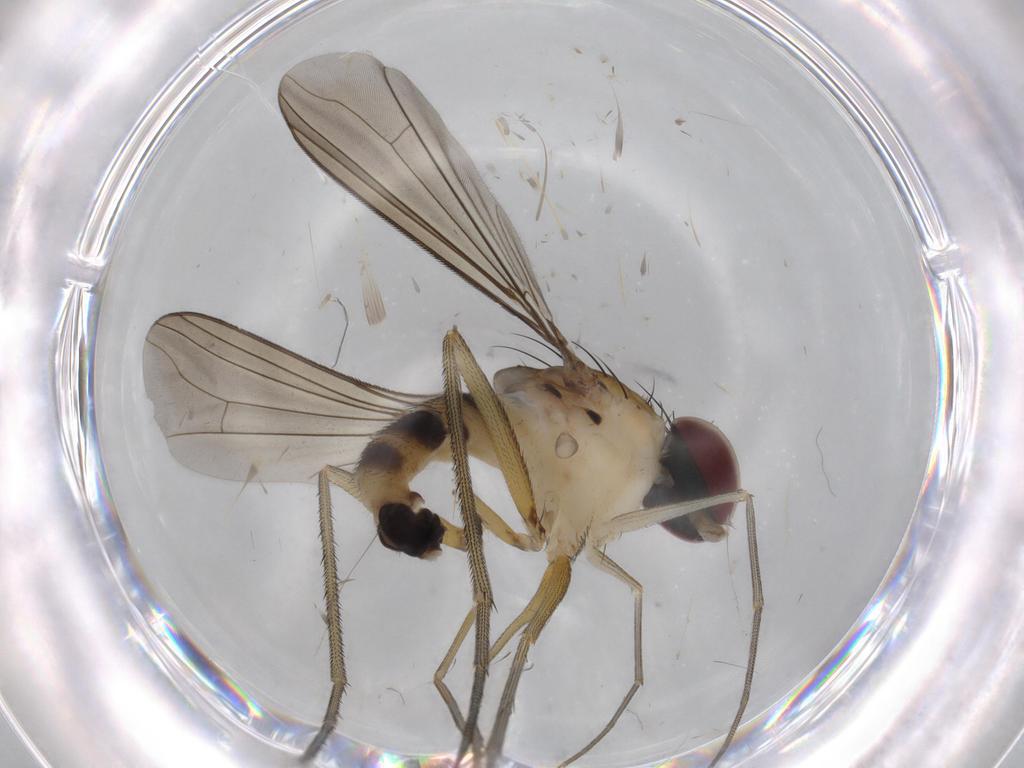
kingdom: Animalia
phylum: Arthropoda
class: Insecta
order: Diptera
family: Dolichopodidae
